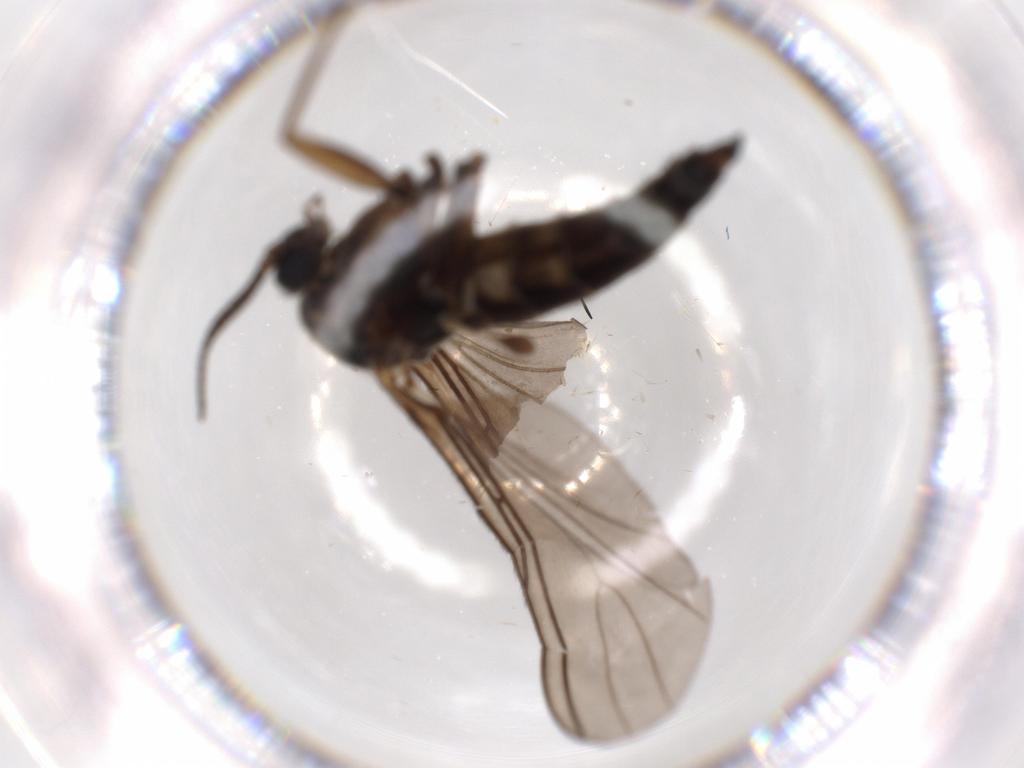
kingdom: Animalia
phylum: Arthropoda
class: Insecta
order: Diptera
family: Sciaridae
